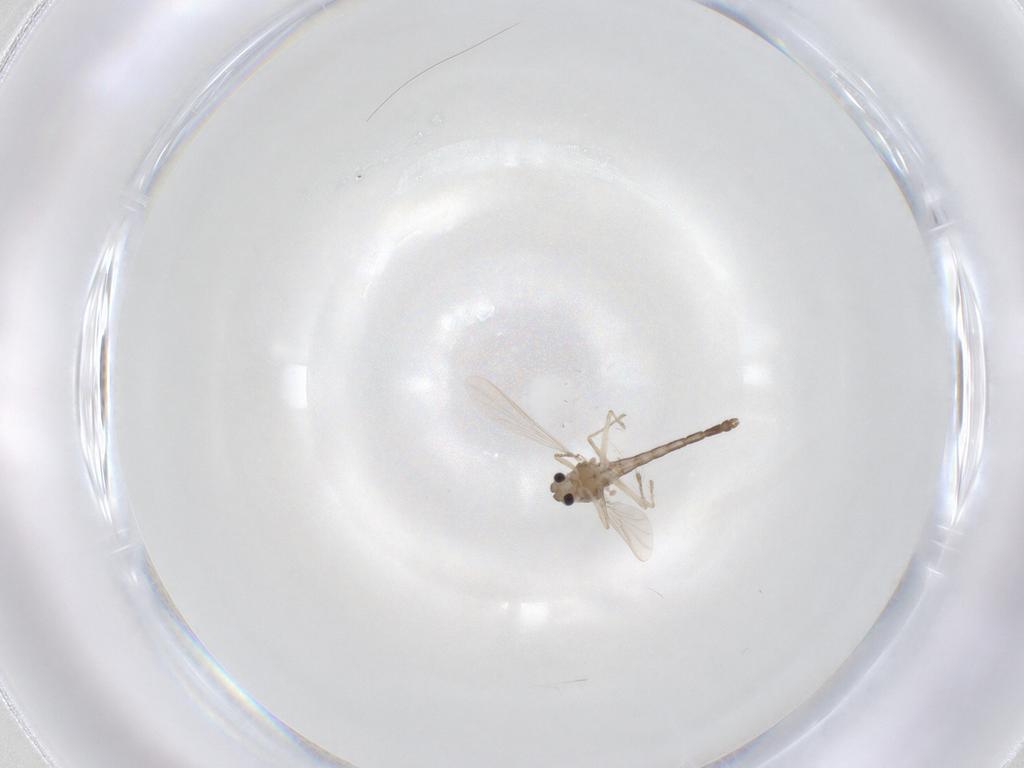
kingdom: Animalia
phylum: Arthropoda
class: Insecta
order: Diptera
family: Chironomidae
